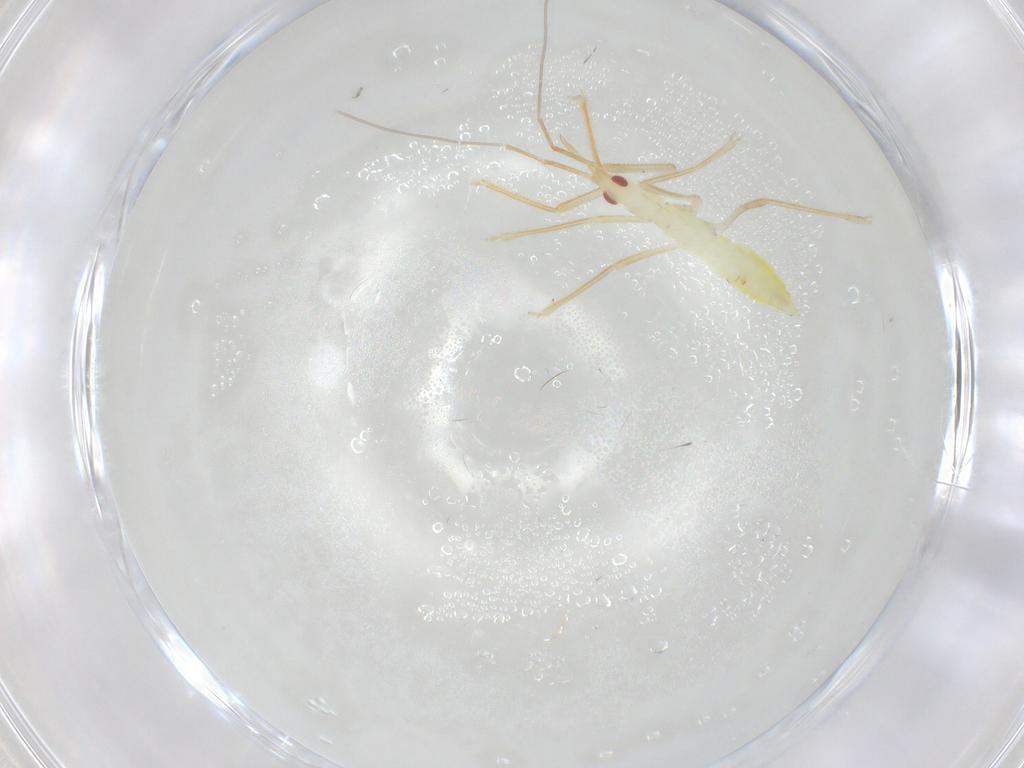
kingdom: Animalia
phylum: Arthropoda
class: Insecta
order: Hemiptera
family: Nabidae
